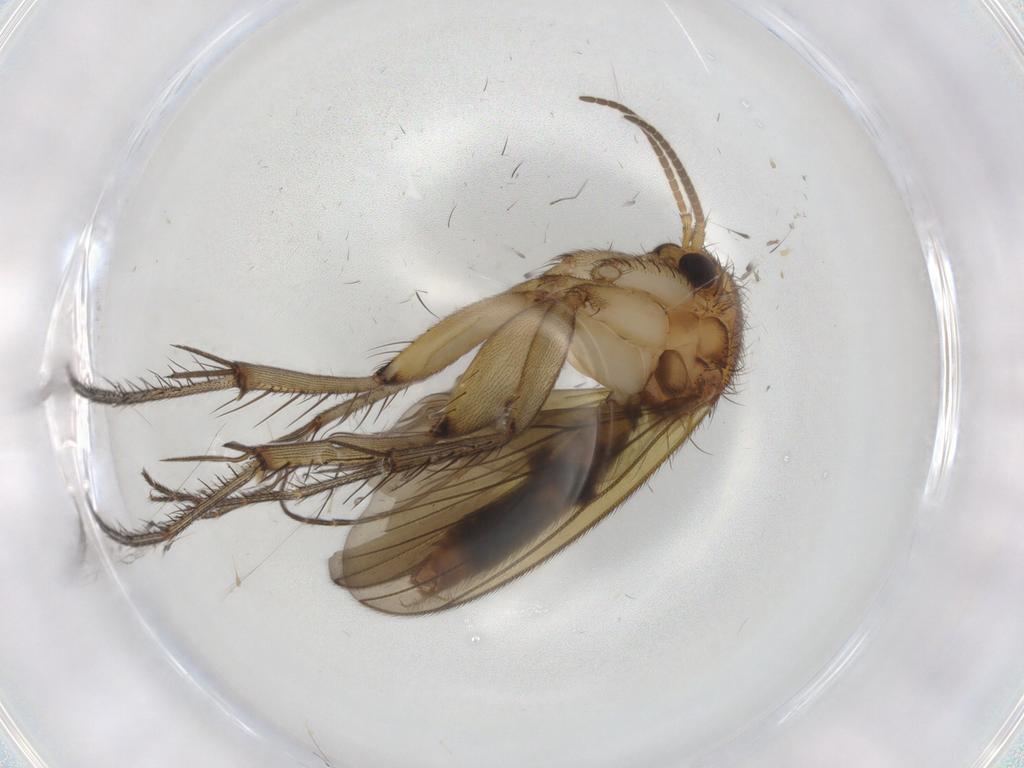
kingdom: Animalia
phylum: Arthropoda
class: Insecta
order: Diptera
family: Mycetophilidae
